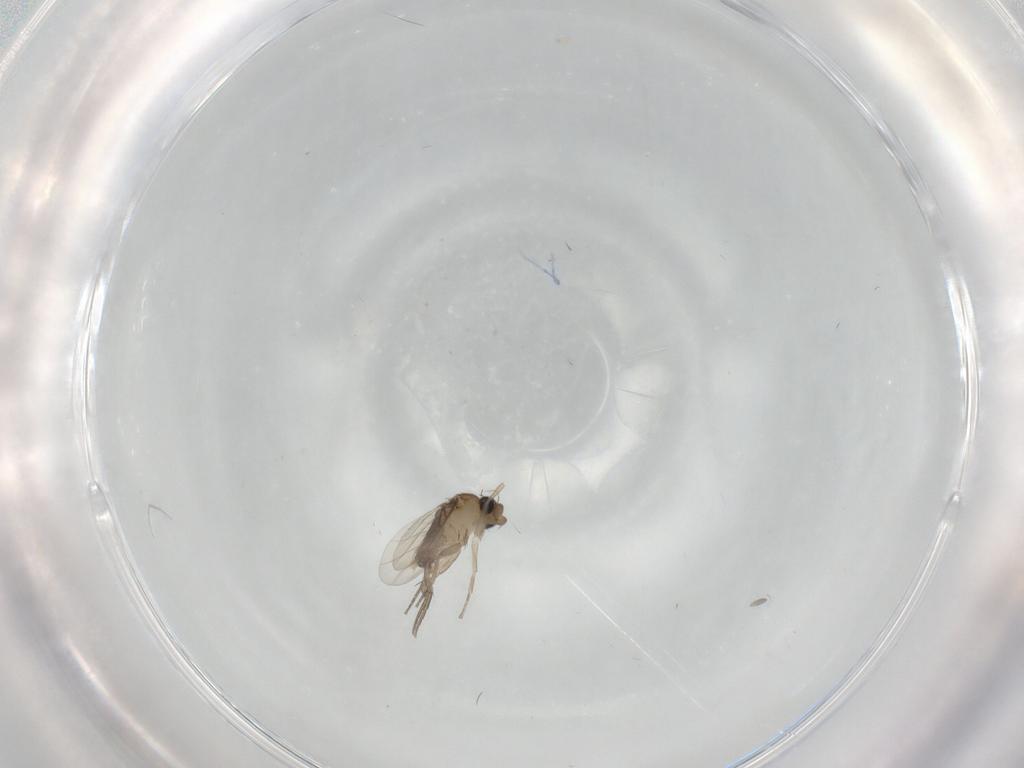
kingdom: Animalia
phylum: Arthropoda
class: Insecta
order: Diptera
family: Phoridae
